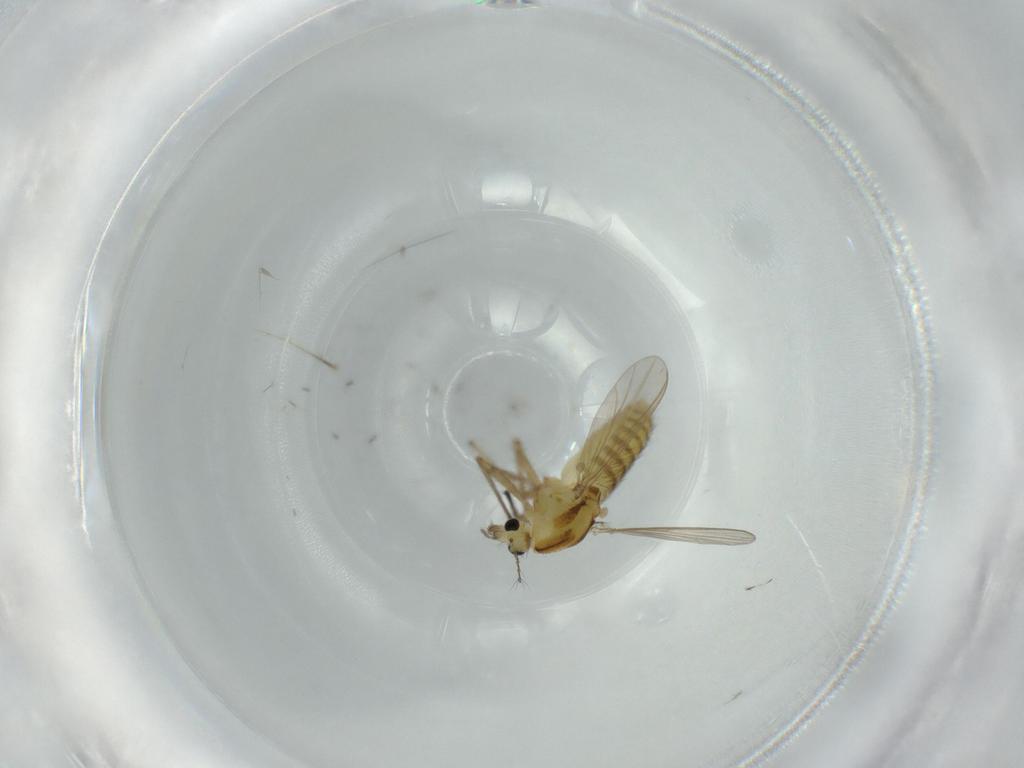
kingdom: Animalia
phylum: Arthropoda
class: Insecta
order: Diptera
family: Chironomidae
